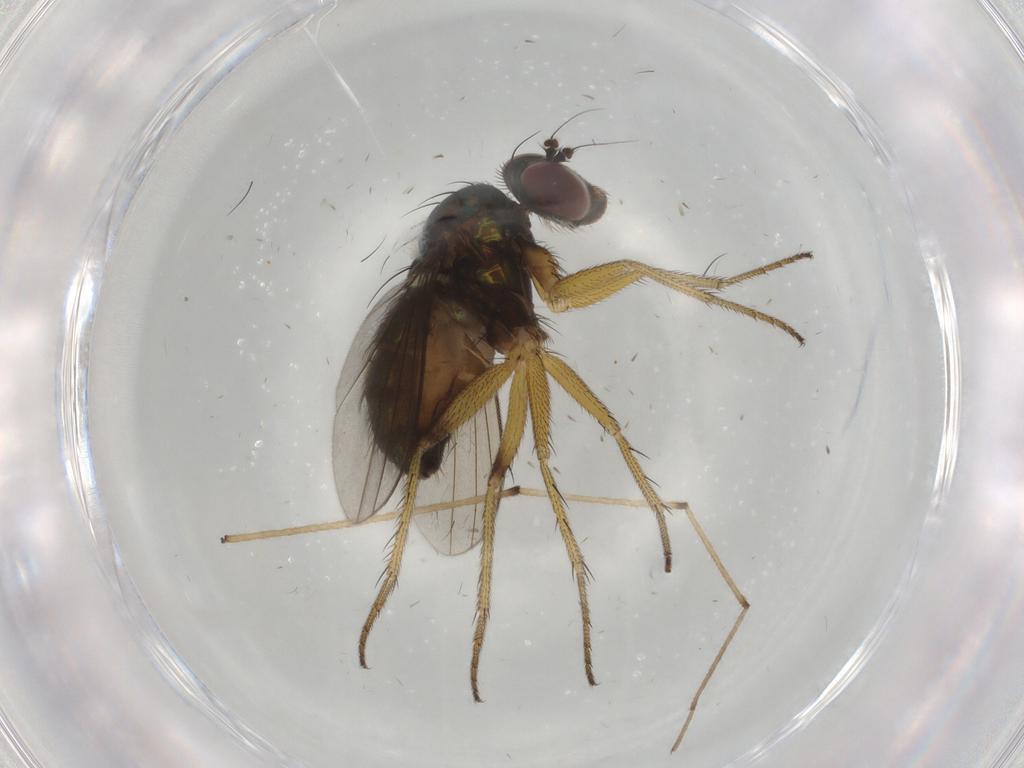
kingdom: Animalia
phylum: Arthropoda
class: Insecta
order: Diptera
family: Dolichopodidae
